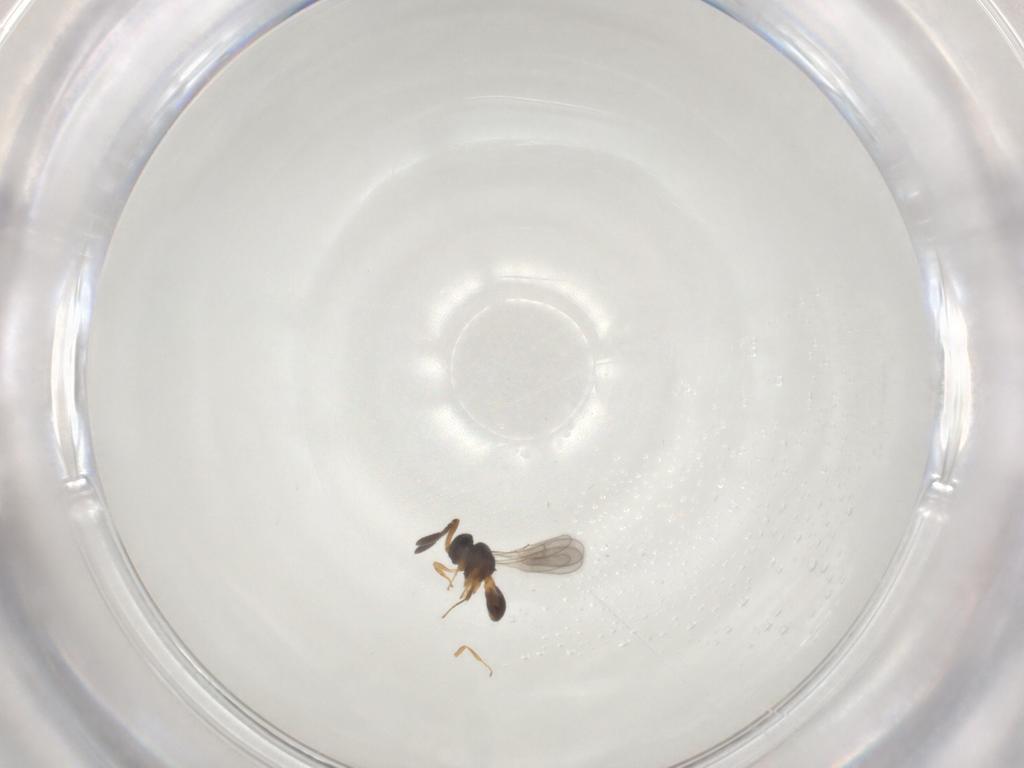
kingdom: Animalia
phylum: Arthropoda
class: Insecta
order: Hymenoptera
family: Scelionidae
